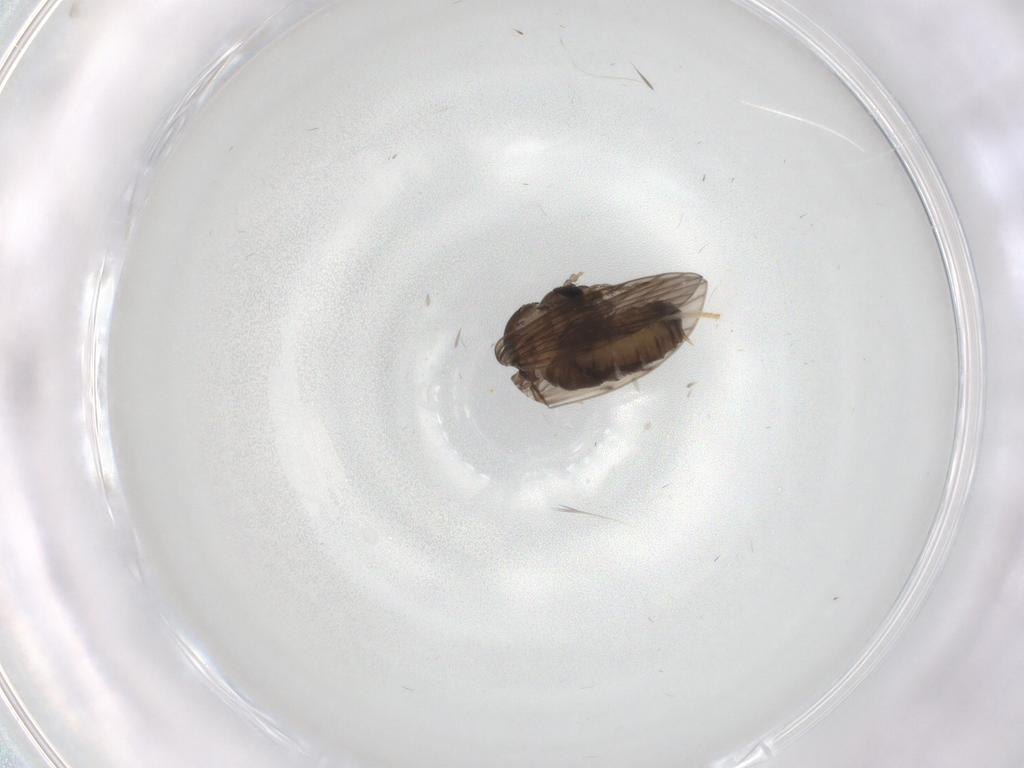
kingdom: Animalia
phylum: Arthropoda
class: Insecta
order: Diptera
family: Cecidomyiidae
